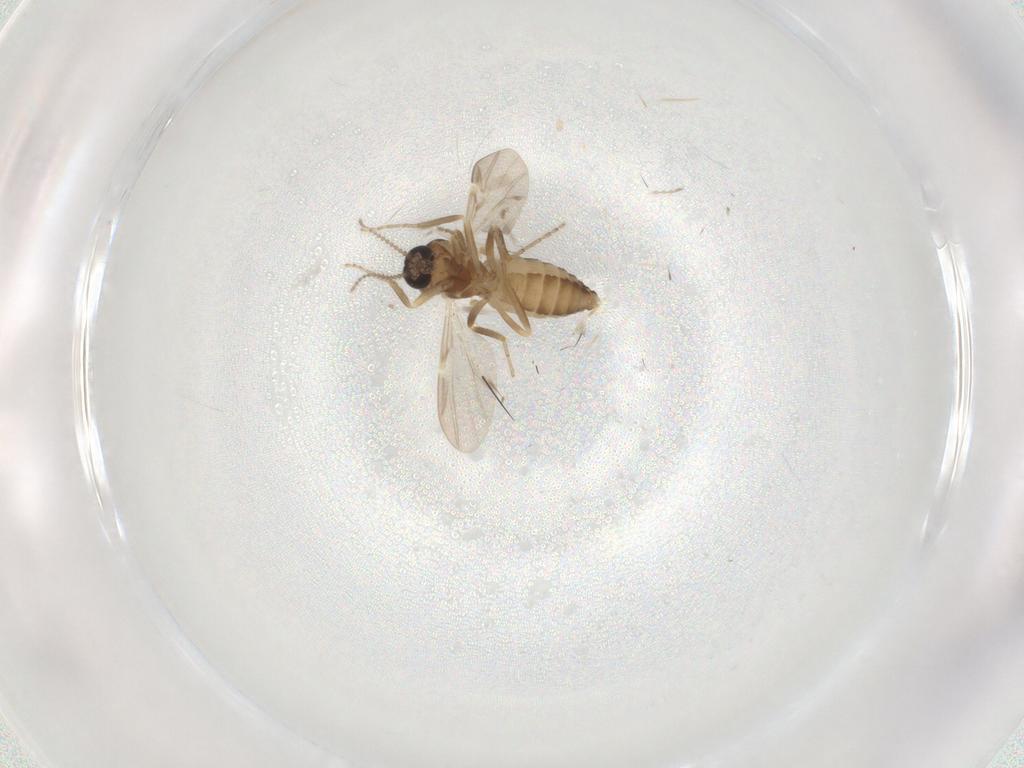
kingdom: Animalia
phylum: Arthropoda
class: Insecta
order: Diptera
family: Ceratopogonidae
